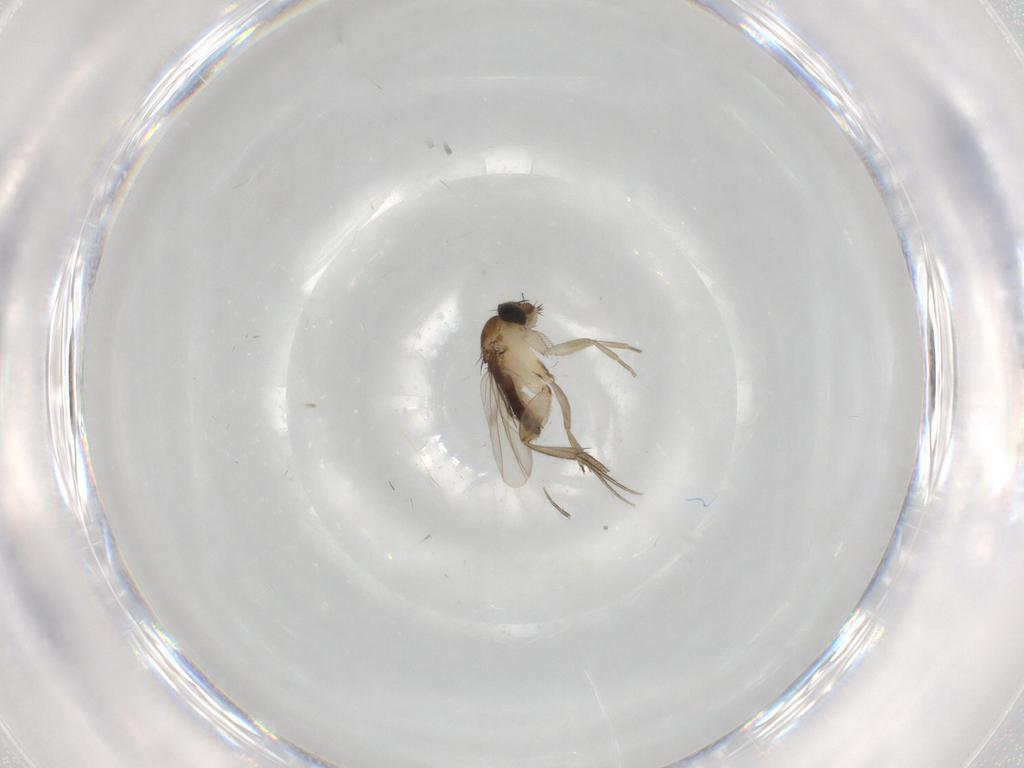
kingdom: Animalia
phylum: Arthropoda
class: Insecta
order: Diptera
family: Phoridae
